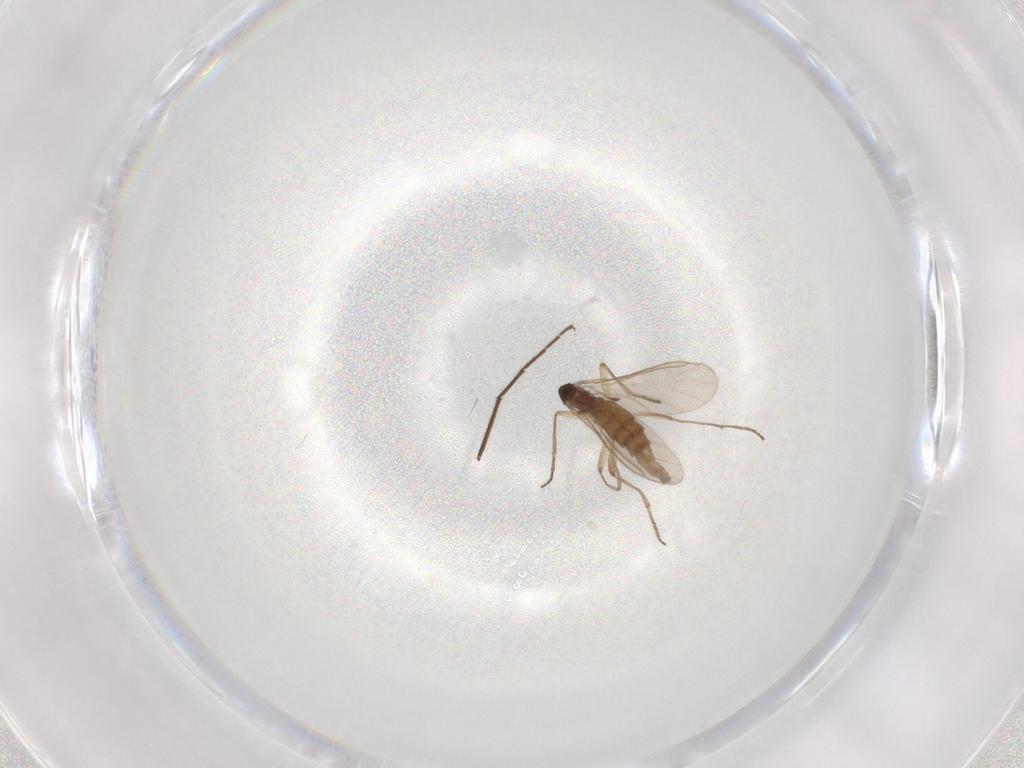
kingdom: Animalia
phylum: Arthropoda
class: Insecta
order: Diptera
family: Sciaridae
